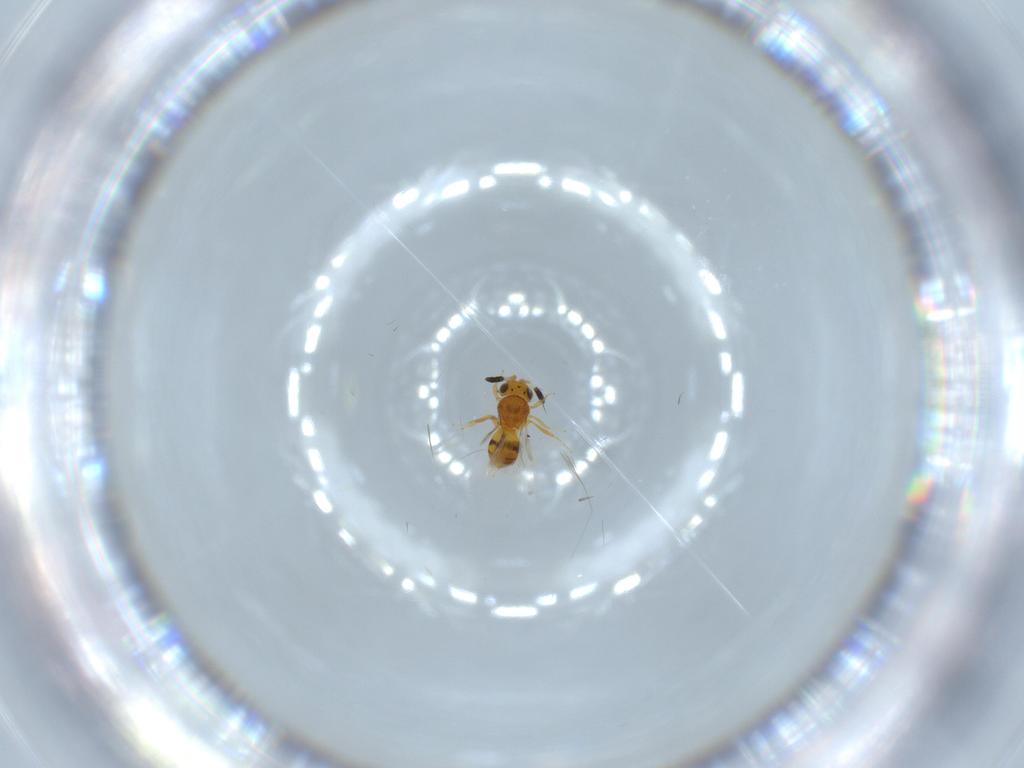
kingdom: Animalia
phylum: Arthropoda
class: Insecta
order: Hymenoptera
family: Scelionidae
